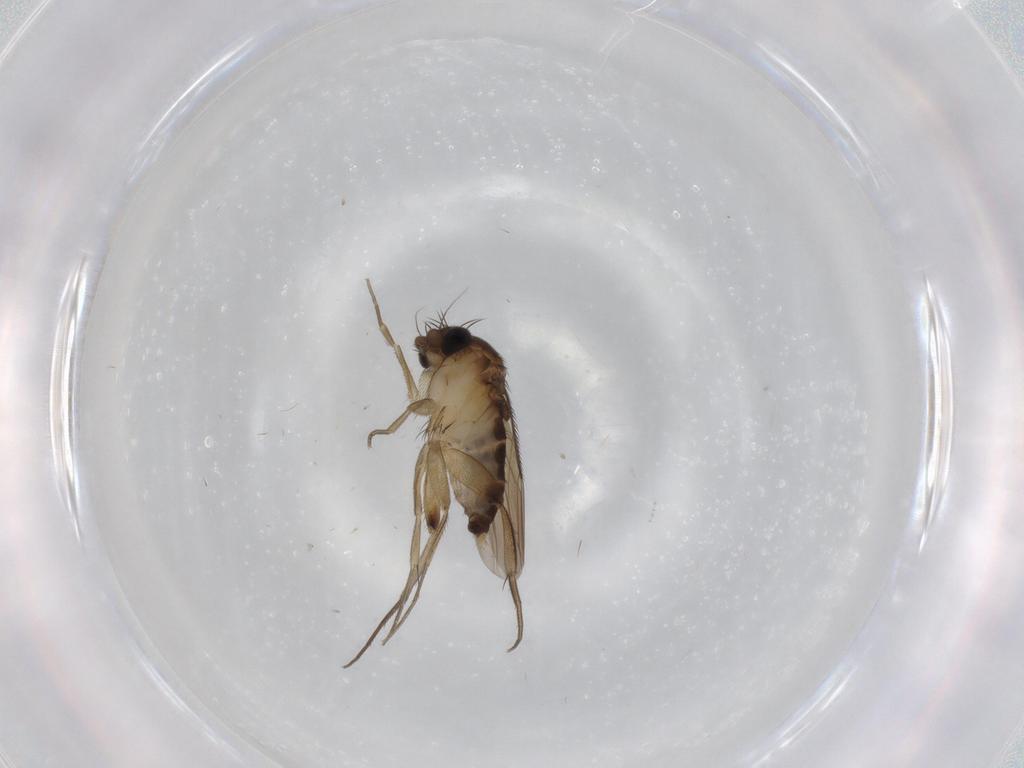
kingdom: Animalia
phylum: Arthropoda
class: Insecta
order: Diptera
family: Phoridae
